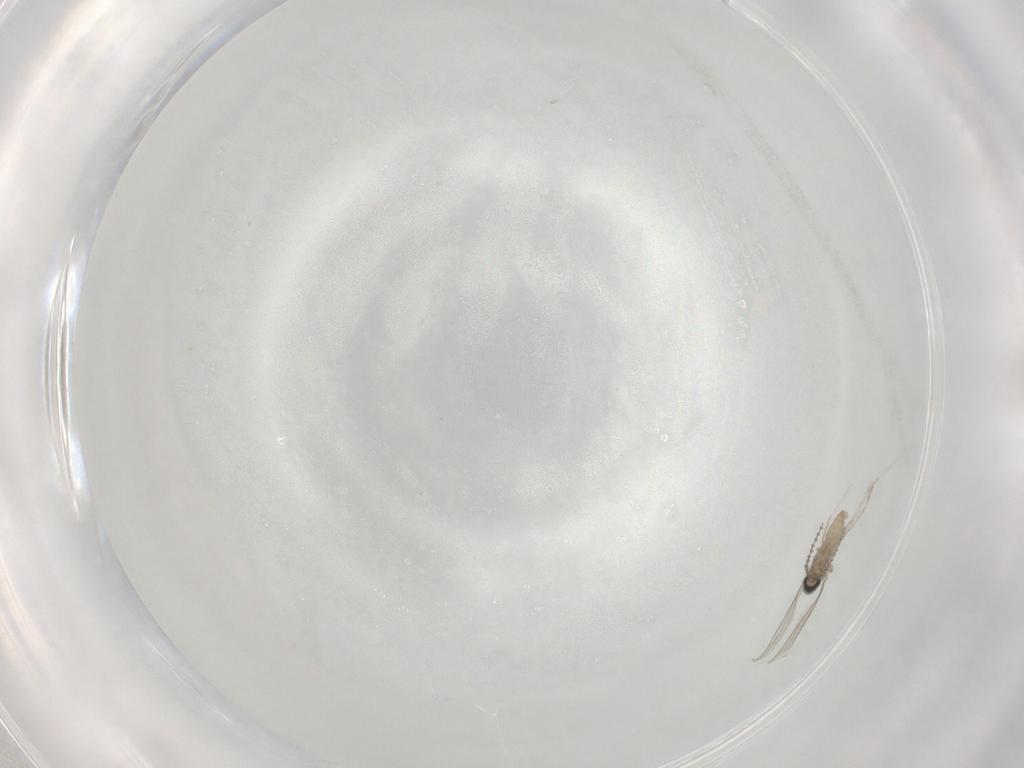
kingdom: Animalia
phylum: Arthropoda
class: Insecta
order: Diptera
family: Cecidomyiidae
